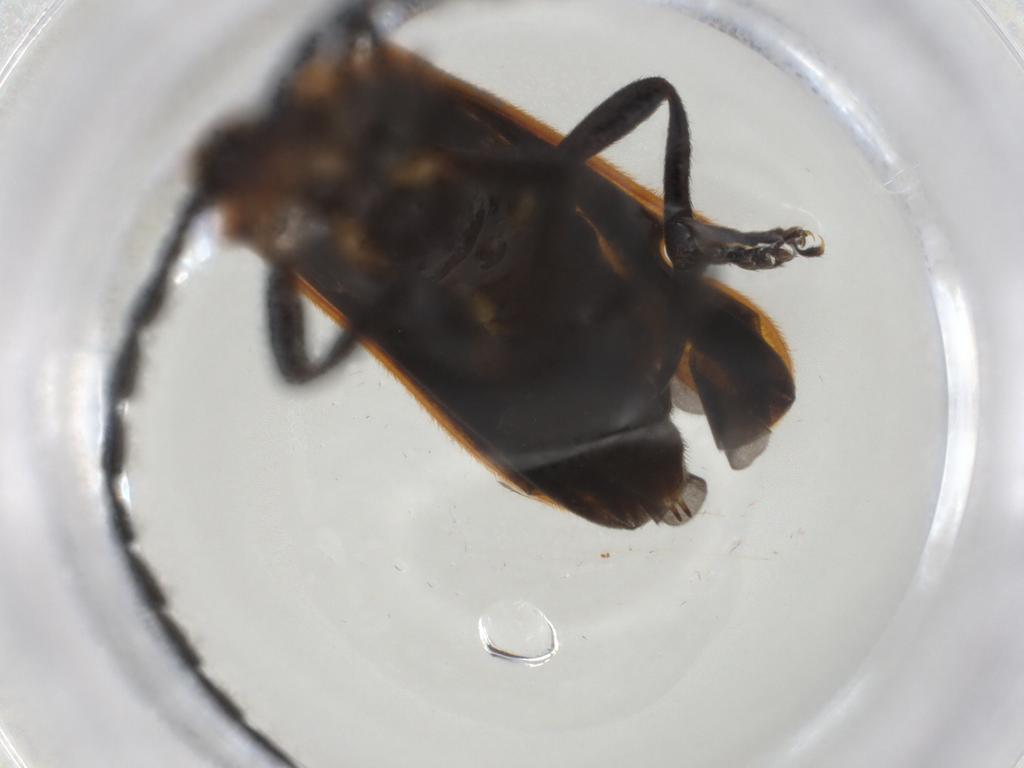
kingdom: Animalia
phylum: Arthropoda
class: Insecta
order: Coleoptera
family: Lycidae
